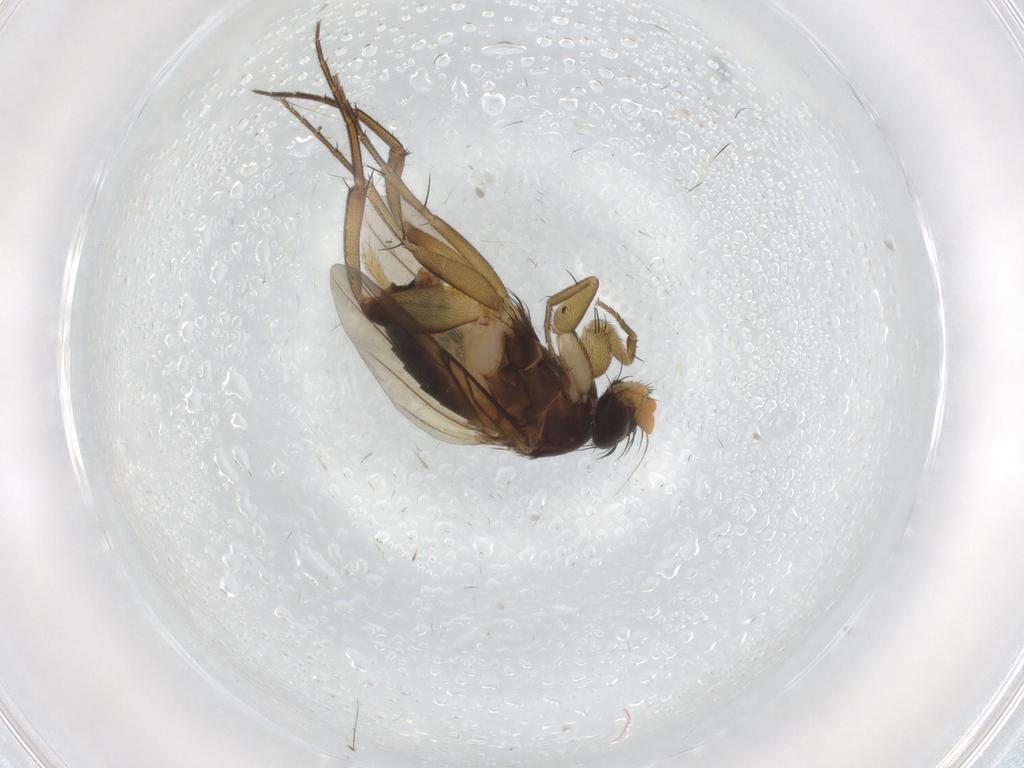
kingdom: Animalia
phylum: Arthropoda
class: Insecta
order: Diptera
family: Phoridae
